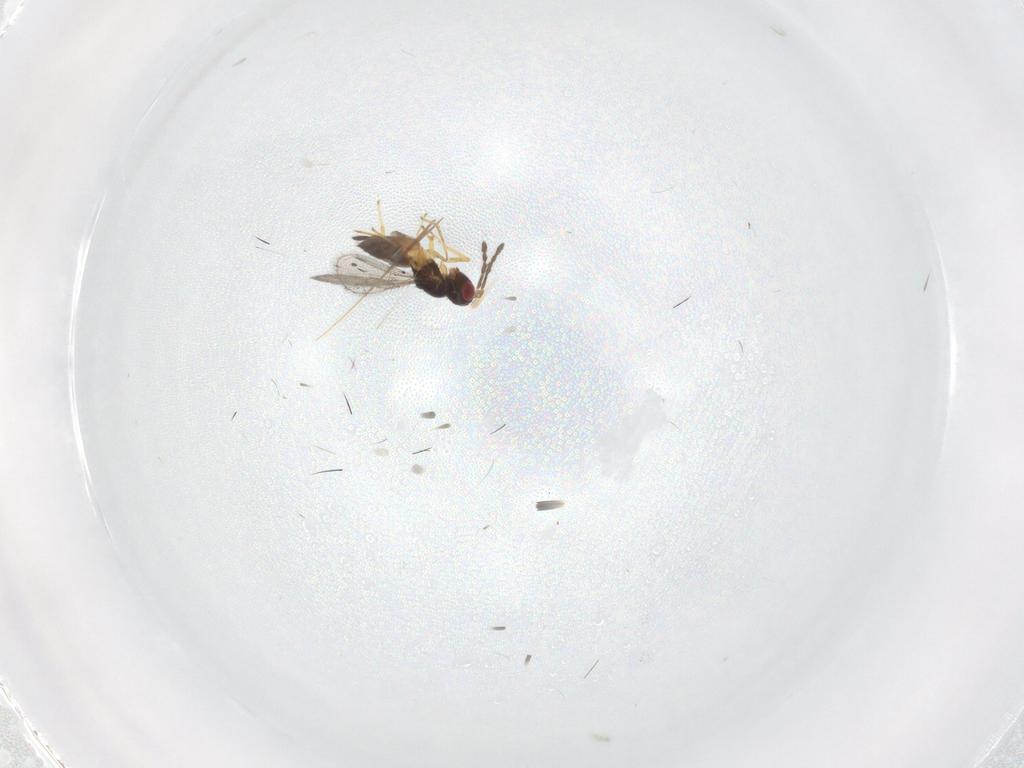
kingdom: Animalia
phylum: Arthropoda
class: Insecta
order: Hymenoptera
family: Eulophidae
